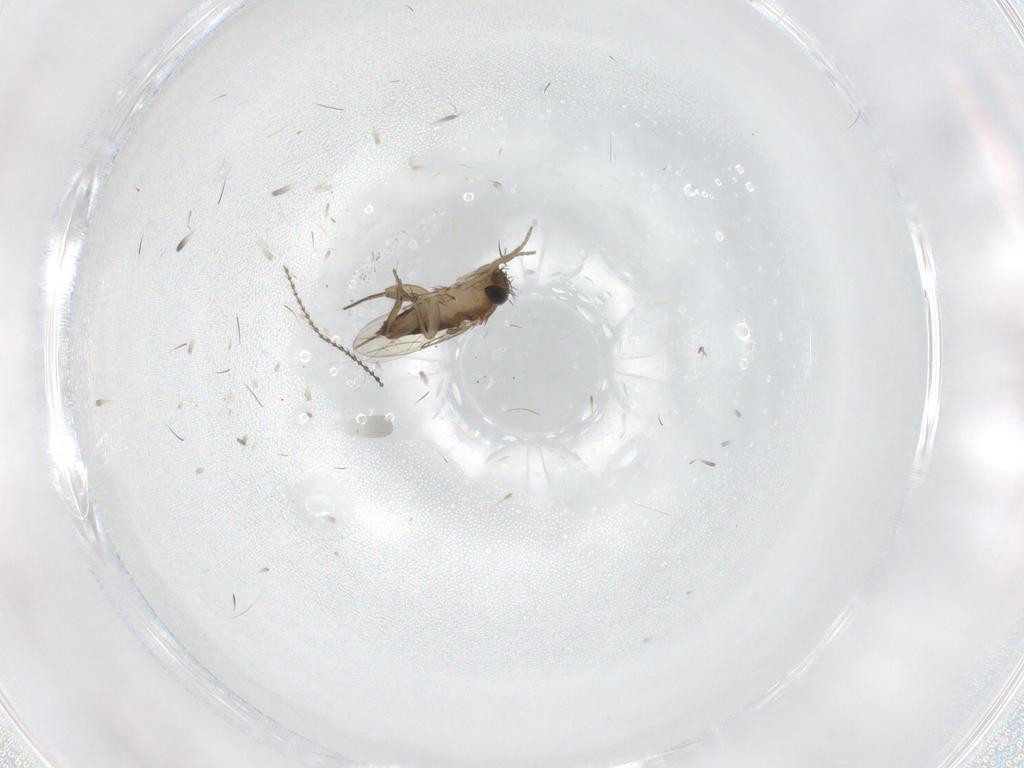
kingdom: Animalia
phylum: Arthropoda
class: Insecta
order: Diptera
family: Phoridae
